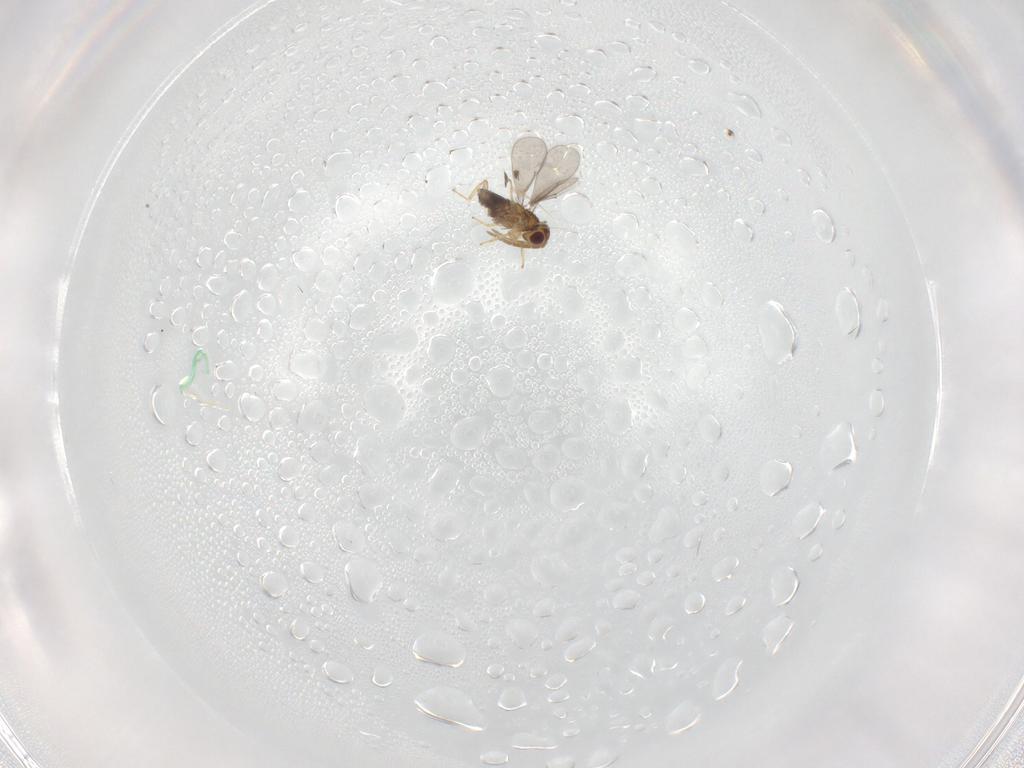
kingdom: Animalia
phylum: Arthropoda
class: Insecta
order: Hymenoptera
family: Aphelinidae
